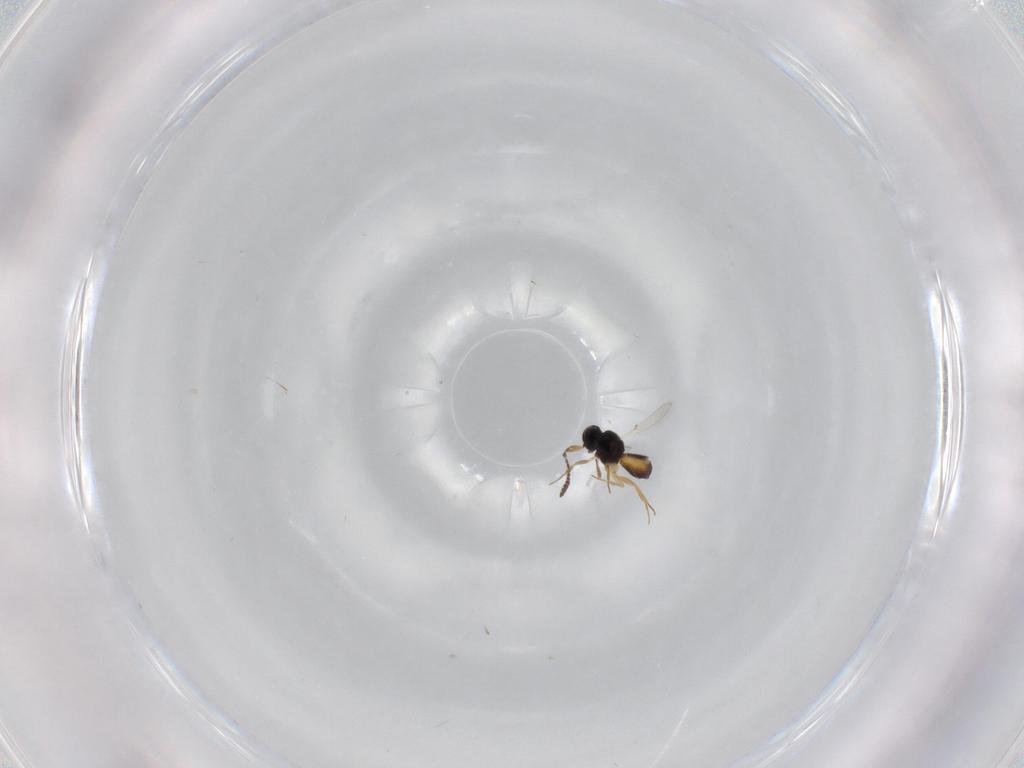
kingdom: Animalia
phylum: Arthropoda
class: Insecta
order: Hymenoptera
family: Scelionidae
